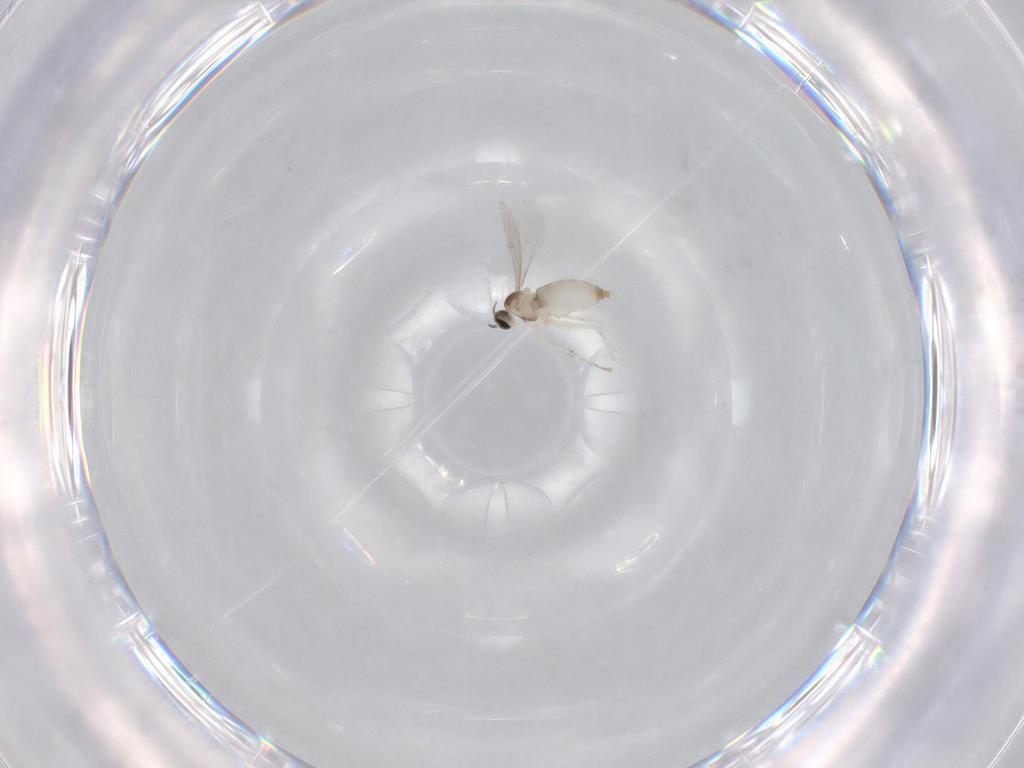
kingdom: Animalia
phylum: Arthropoda
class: Insecta
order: Diptera
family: Chironomidae
